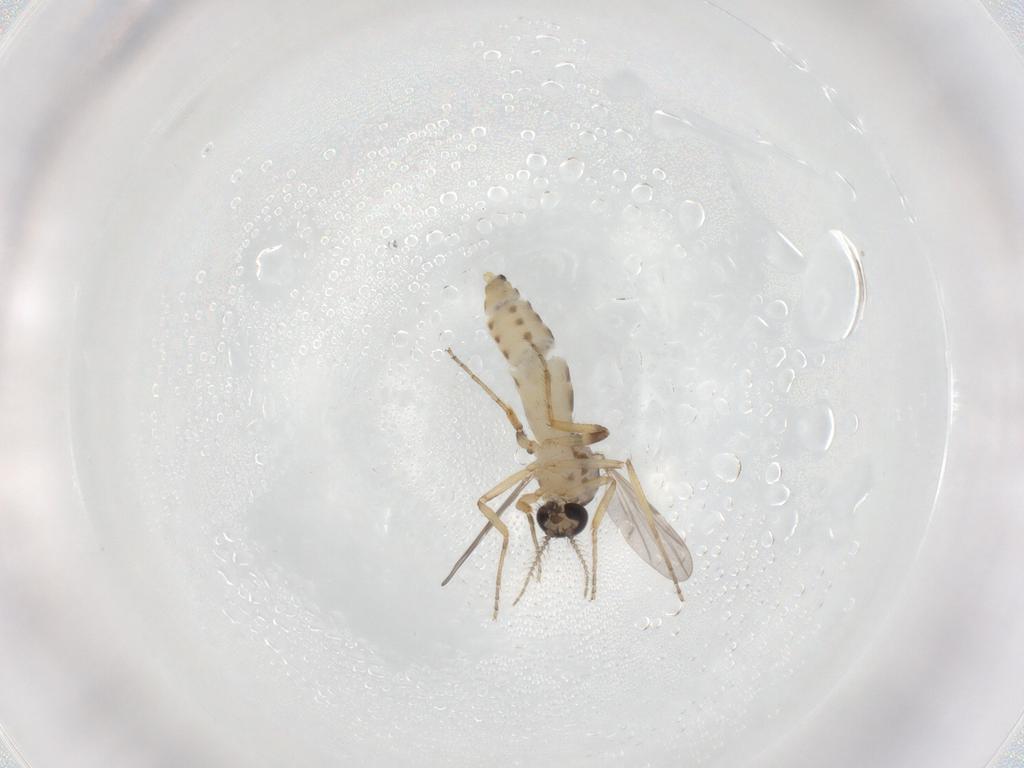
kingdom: Animalia
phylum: Arthropoda
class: Insecta
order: Diptera
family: Ceratopogonidae
